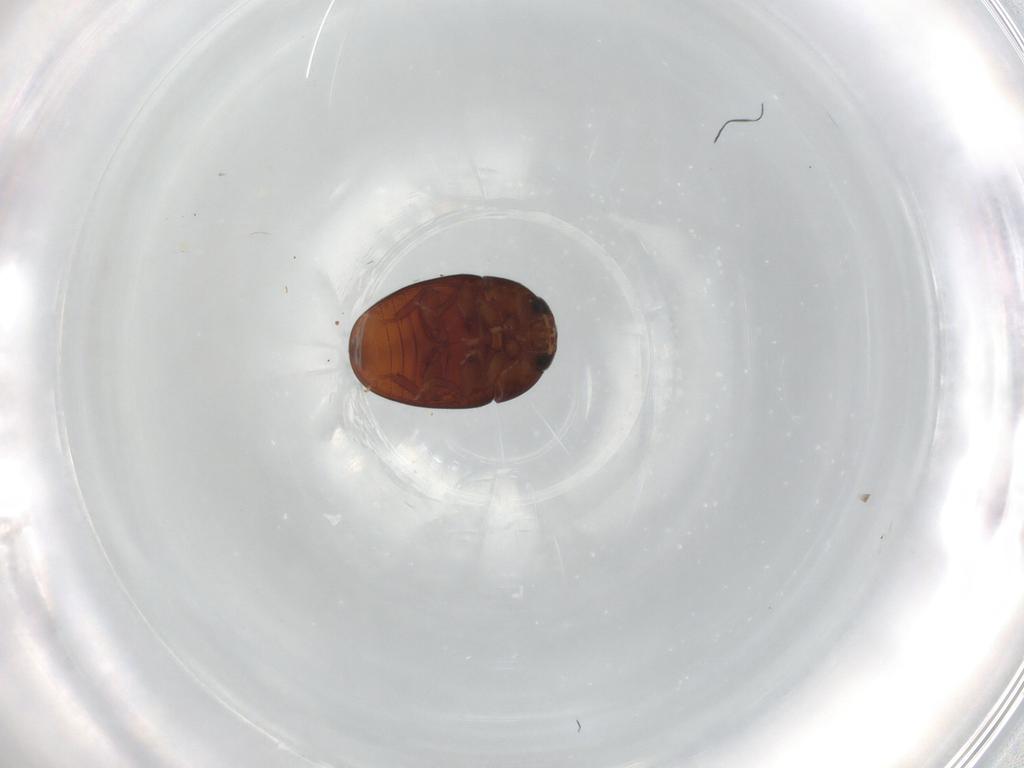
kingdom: Animalia
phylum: Arthropoda
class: Insecta
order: Coleoptera
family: Phalacridae
